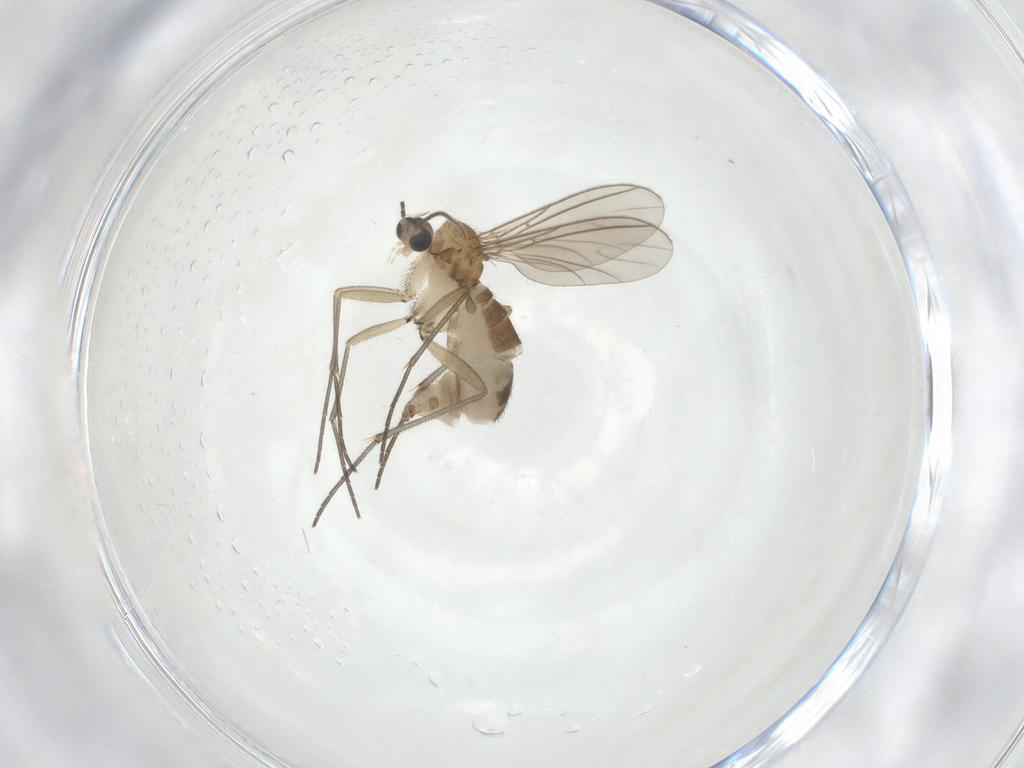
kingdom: Animalia
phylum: Arthropoda
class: Insecta
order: Diptera
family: Sciaridae
